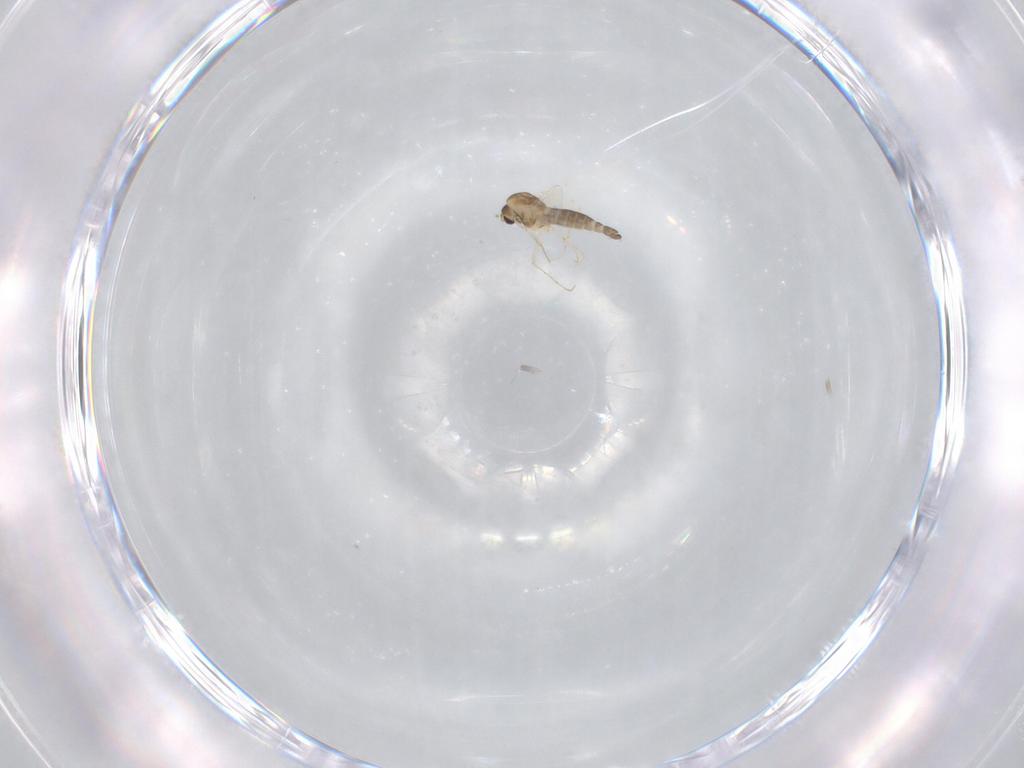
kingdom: Animalia
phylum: Arthropoda
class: Insecta
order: Diptera
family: Chironomidae
